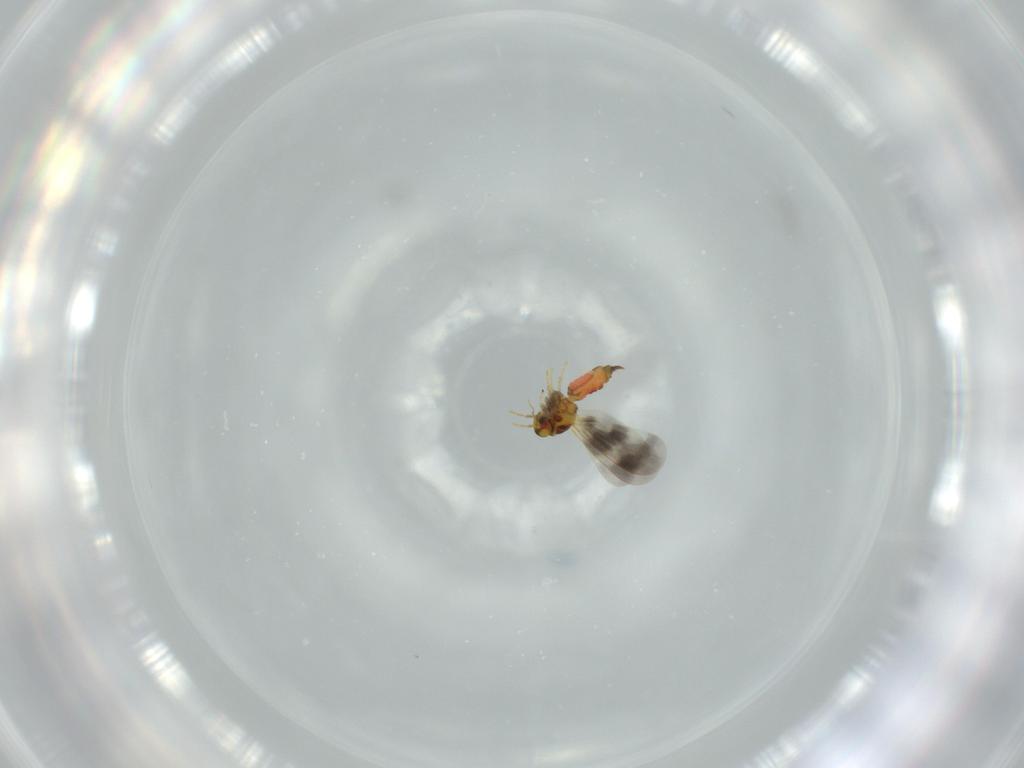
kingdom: Animalia
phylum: Arthropoda
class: Insecta
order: Hemiptera
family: Aleyrodidae
